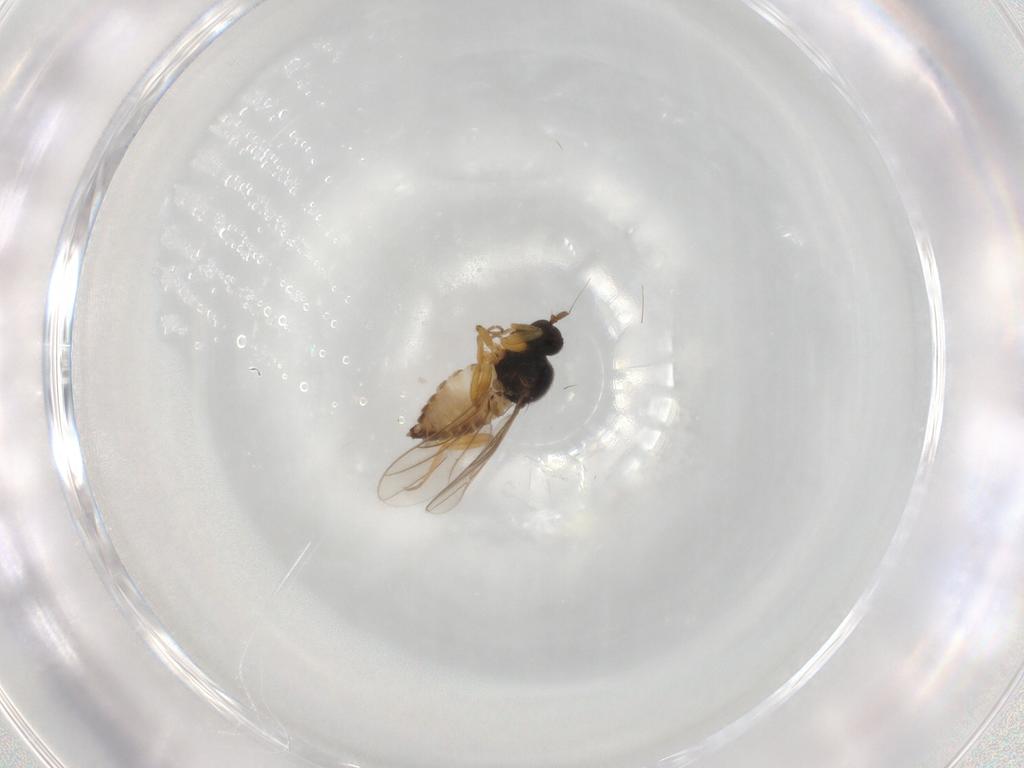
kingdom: Animalia
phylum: Arthropoda
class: Insecta
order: Diptera
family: Hybotidae
